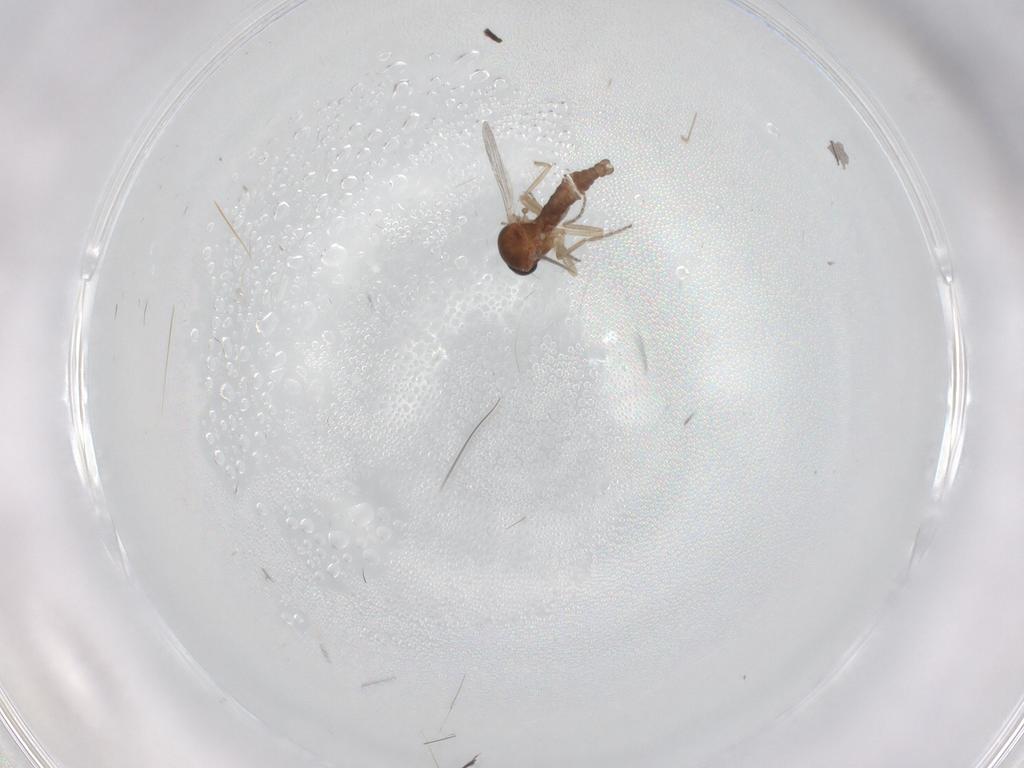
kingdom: Animalia
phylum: Arthropoda
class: Insecta
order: Diptera
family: Ceratopogonidae
